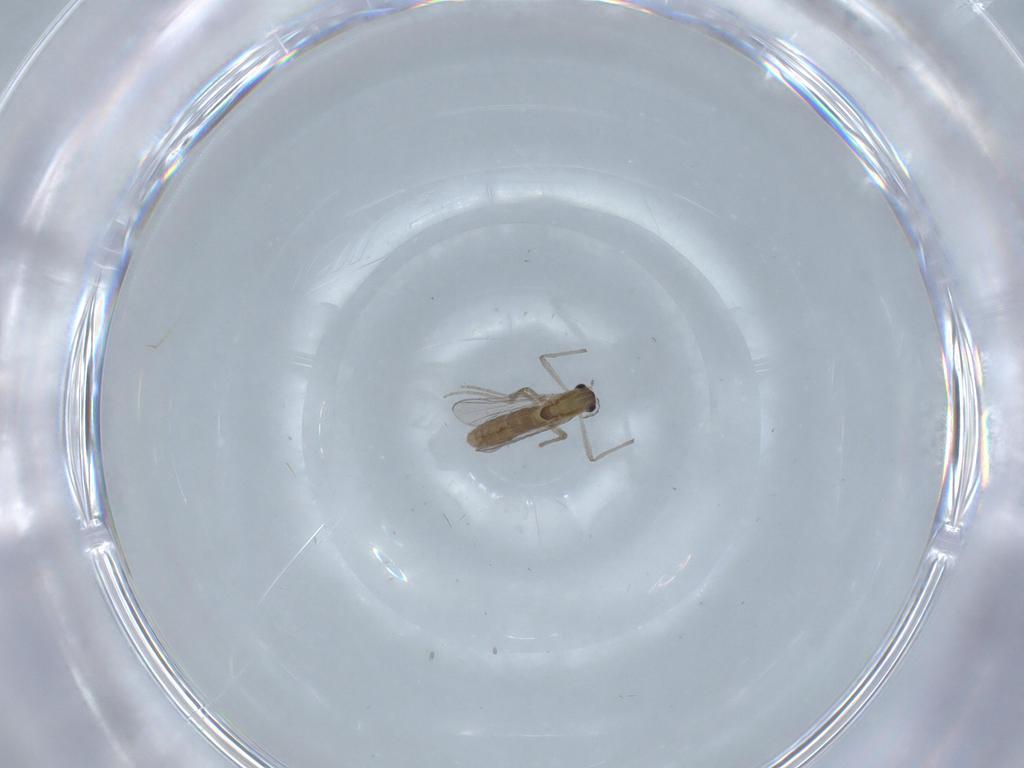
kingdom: Animalia
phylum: Arthropoda
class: Insecta
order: Diptera
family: Chironomidae
